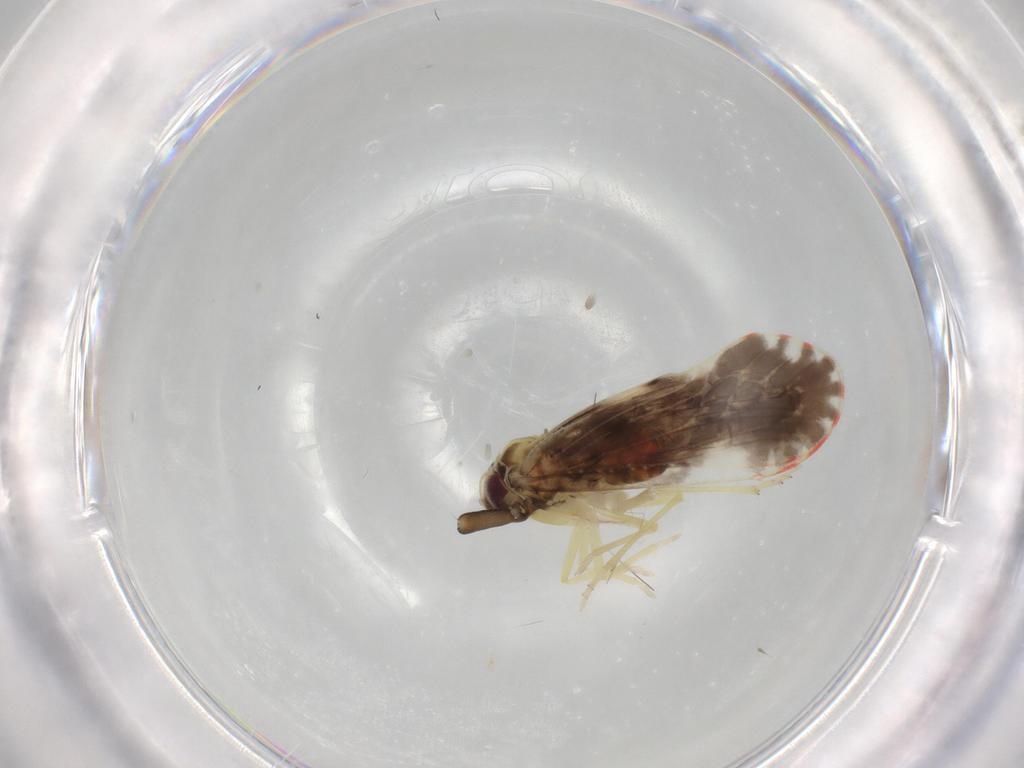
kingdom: Animalia
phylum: Arthropoda
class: Insecta
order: Hemiptera
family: Derbidae
